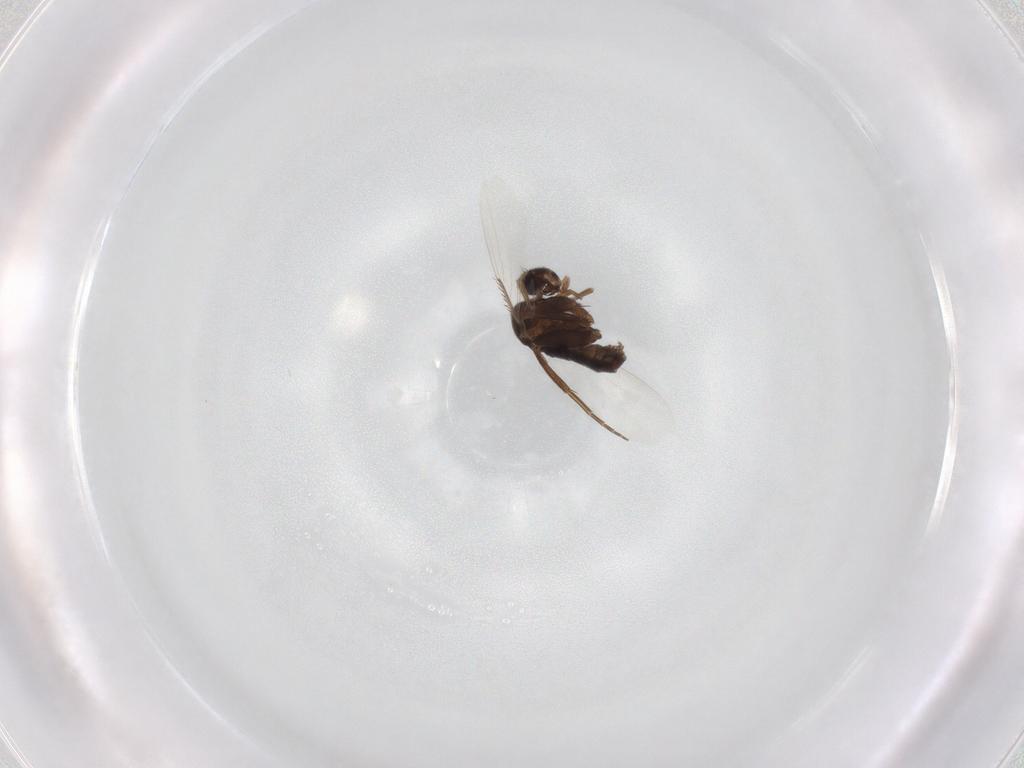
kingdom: Animalia
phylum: Arthropoda
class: Insecta
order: Diptera
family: Phoridae
